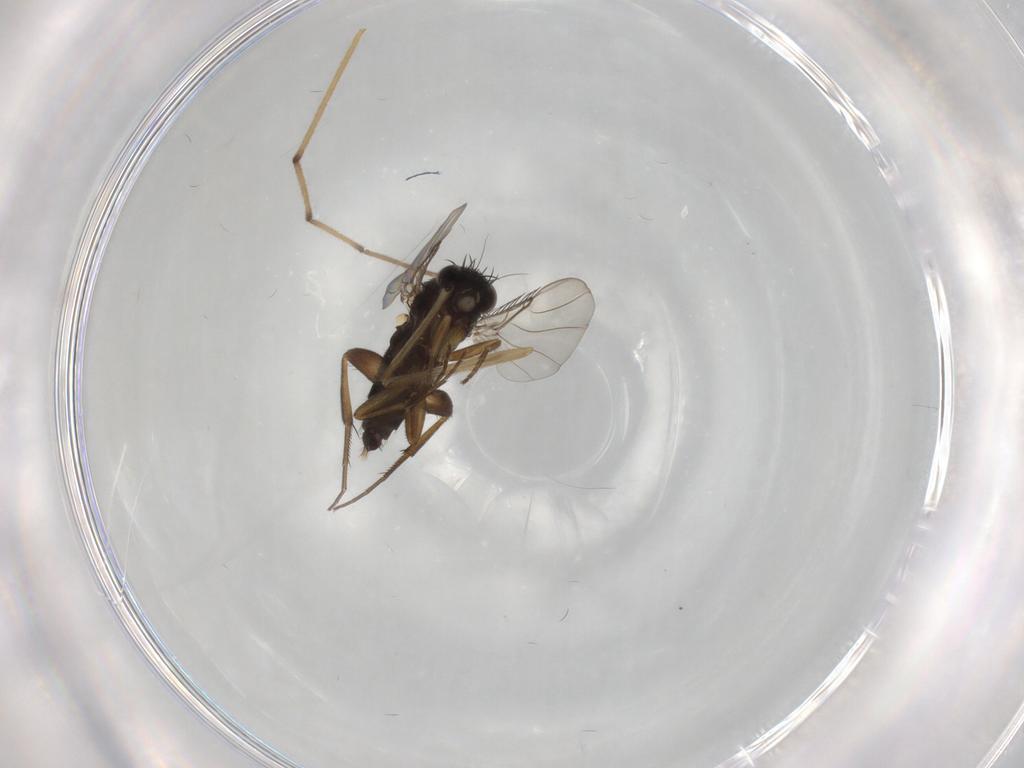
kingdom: Animalia
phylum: Arthropoda
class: Insecta
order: Diptera
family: Phoridae
